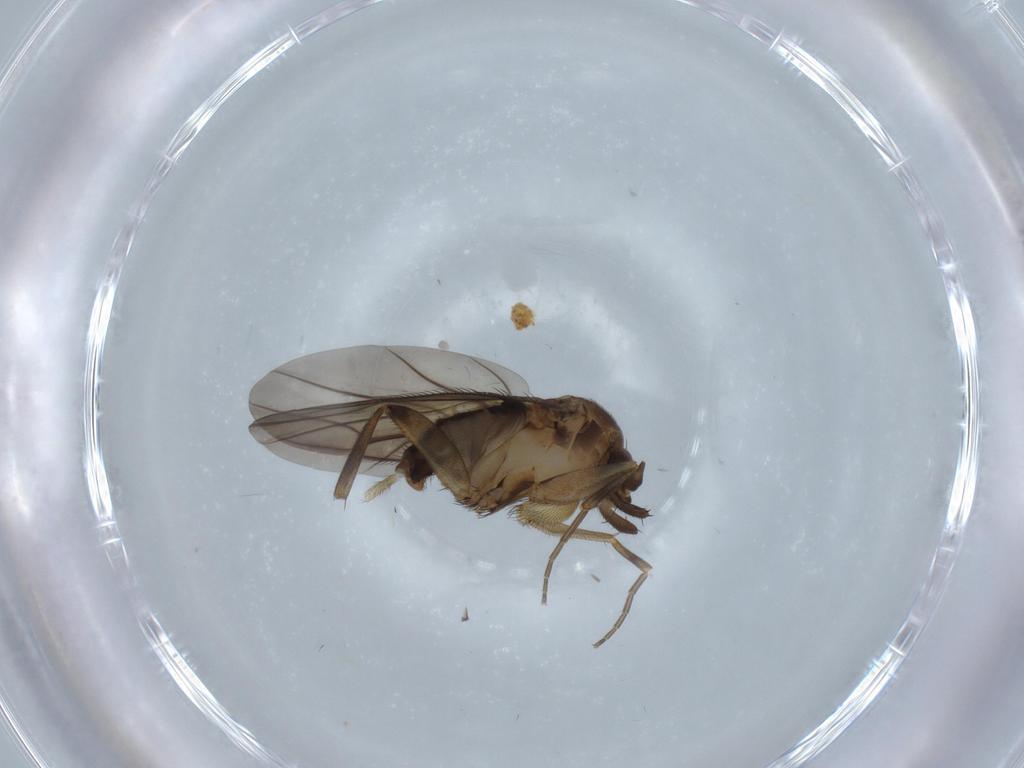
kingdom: Animalia
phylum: Arthropoda
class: Insecta
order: Diptera
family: Phoridae
